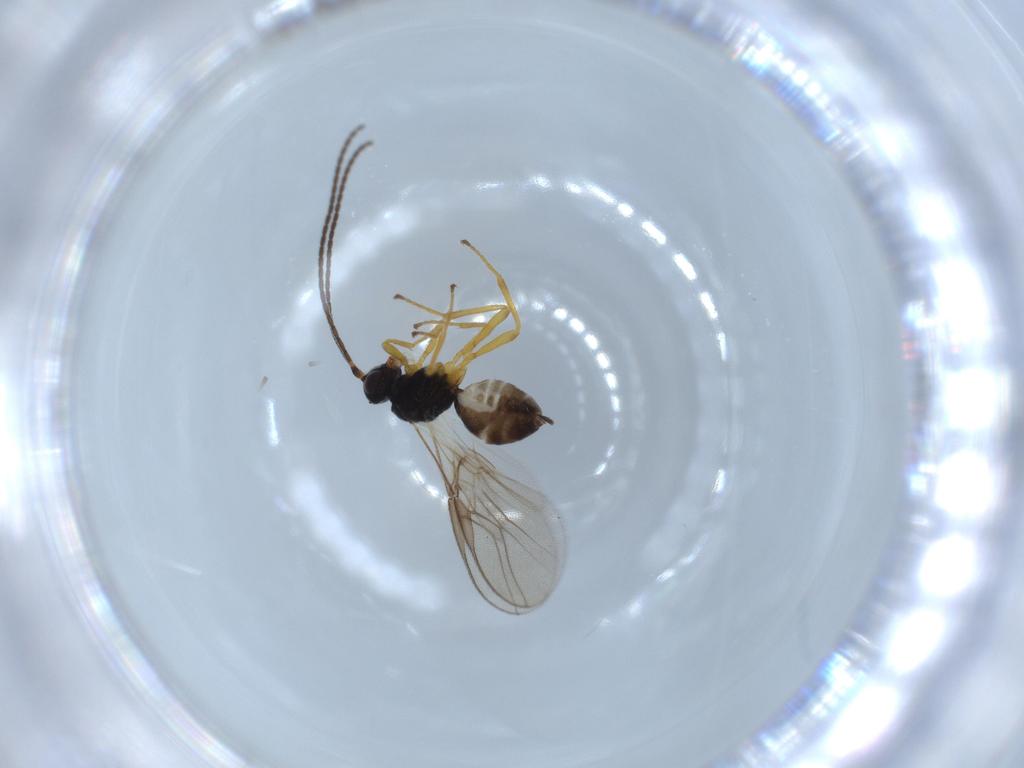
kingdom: Animalia
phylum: Arthropoda
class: Insecta
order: Hymenoptera
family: Braconidae
